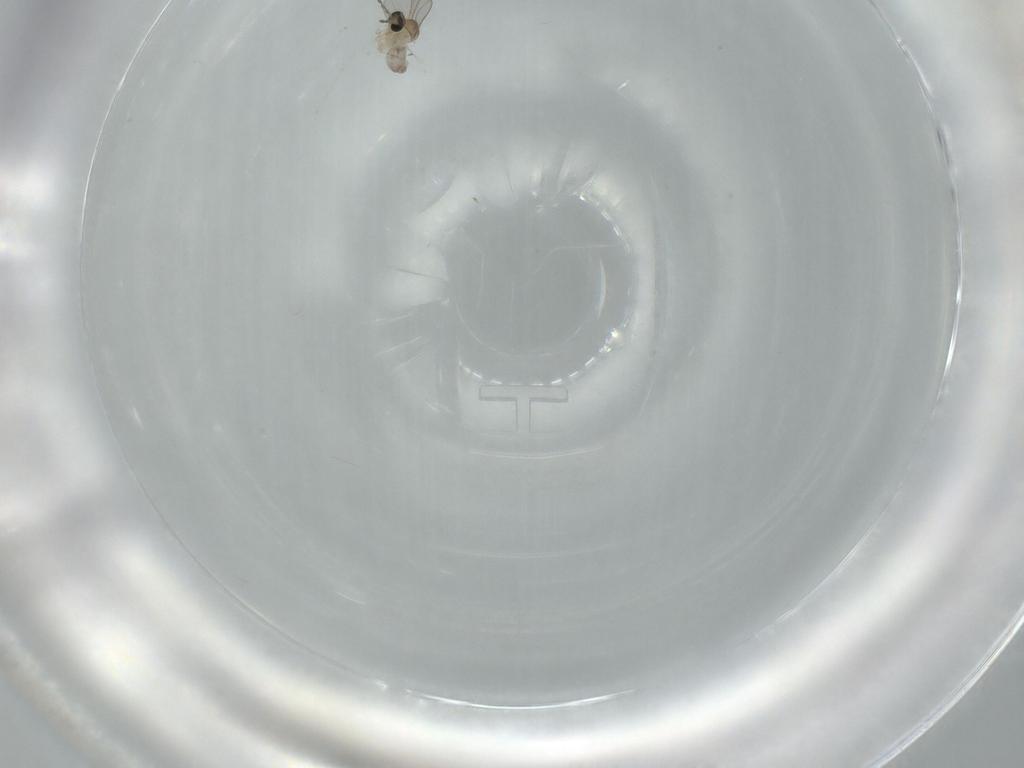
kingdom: Animalia
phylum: Arthropoda
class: Insecta
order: Diptera
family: Cecidomyiidae
